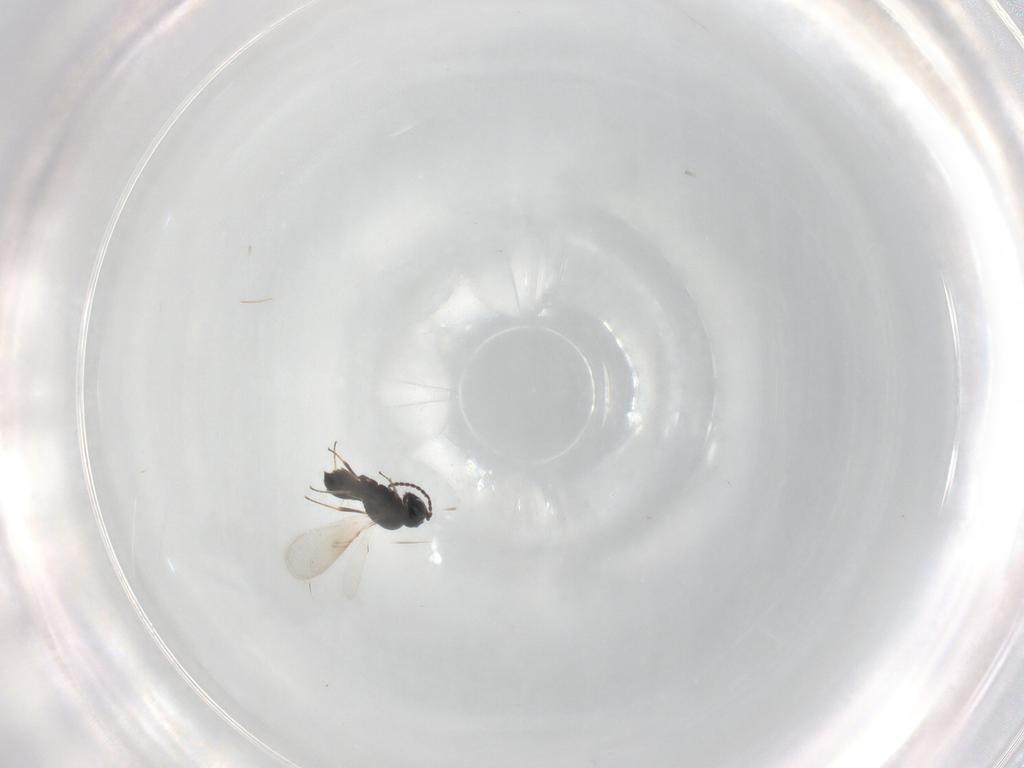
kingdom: Animalia
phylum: Arthropoda
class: Insecta
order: Hymenoptera
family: Scelionidae
